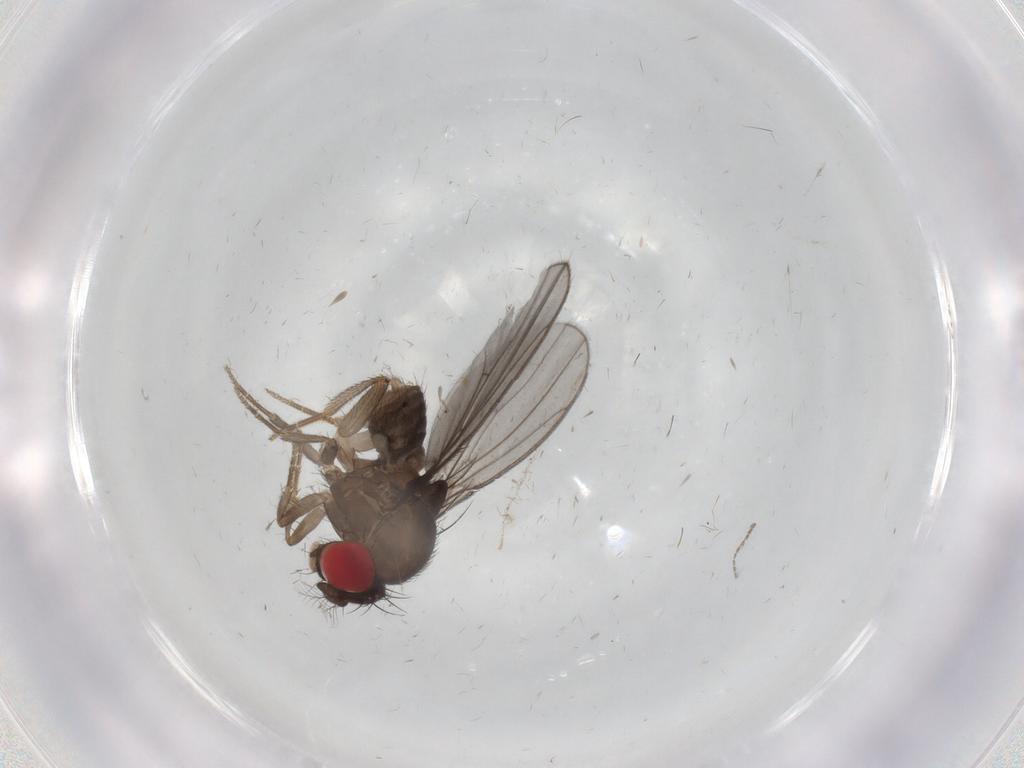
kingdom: Animalia
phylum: Arthropoda
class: Insecta
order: Diptera
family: Drosophilidae
